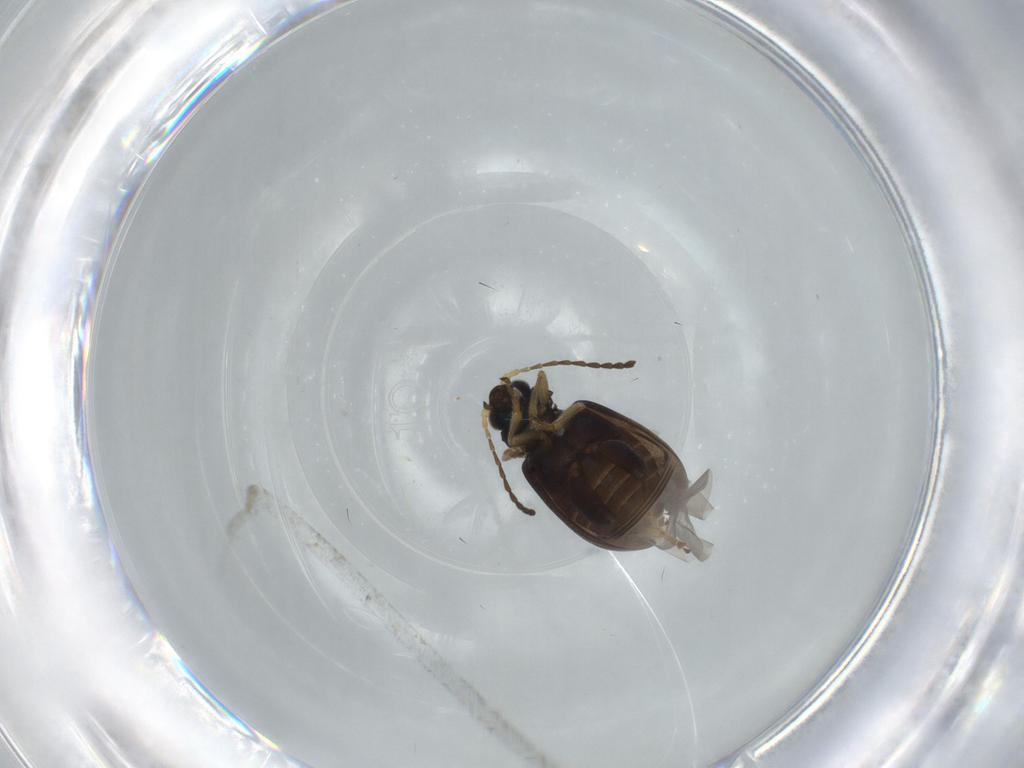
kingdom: Animalia
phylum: Arthropoda
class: Insecta
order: Coleoptera
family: Chrysomelidae
